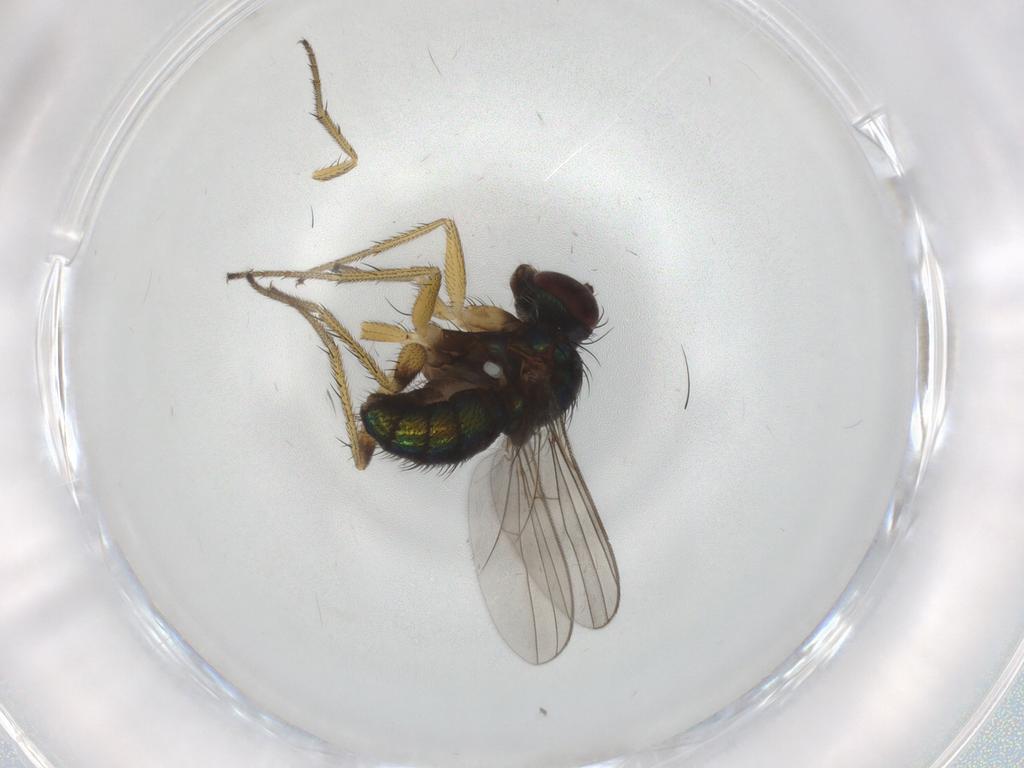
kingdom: Animalia
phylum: Arthropoda
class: Insecta
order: Diptera
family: Dolichopodidae
